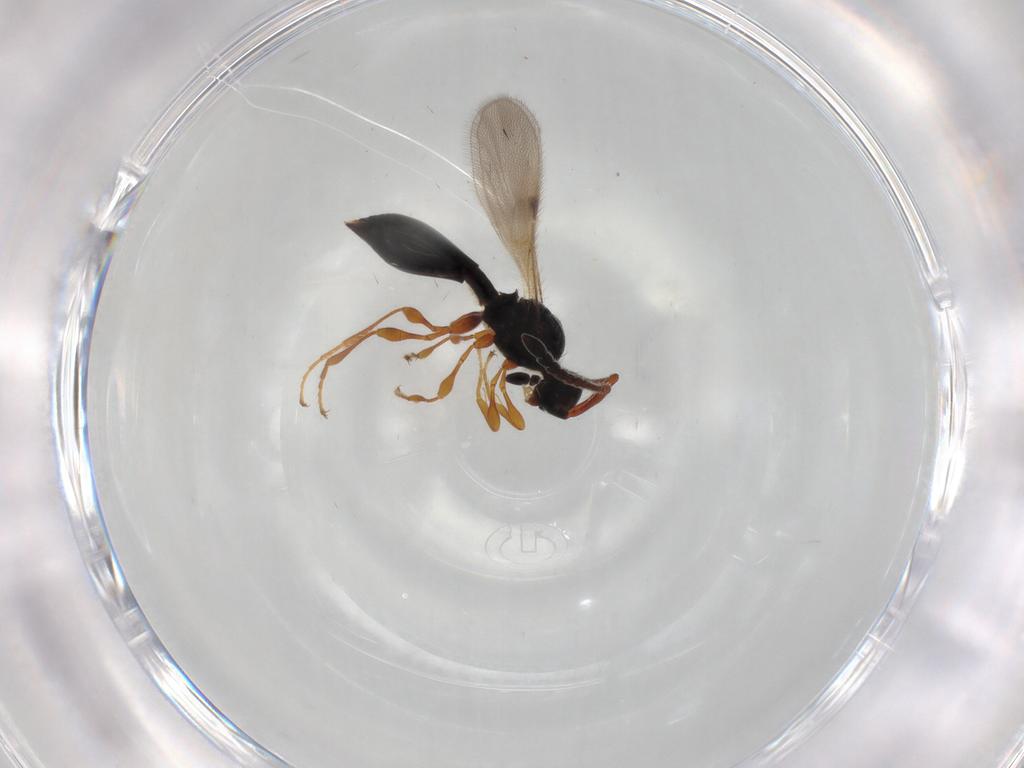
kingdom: Animalia
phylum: Arthropoda
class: Insecta
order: Hymenoptera
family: Diapriidae
